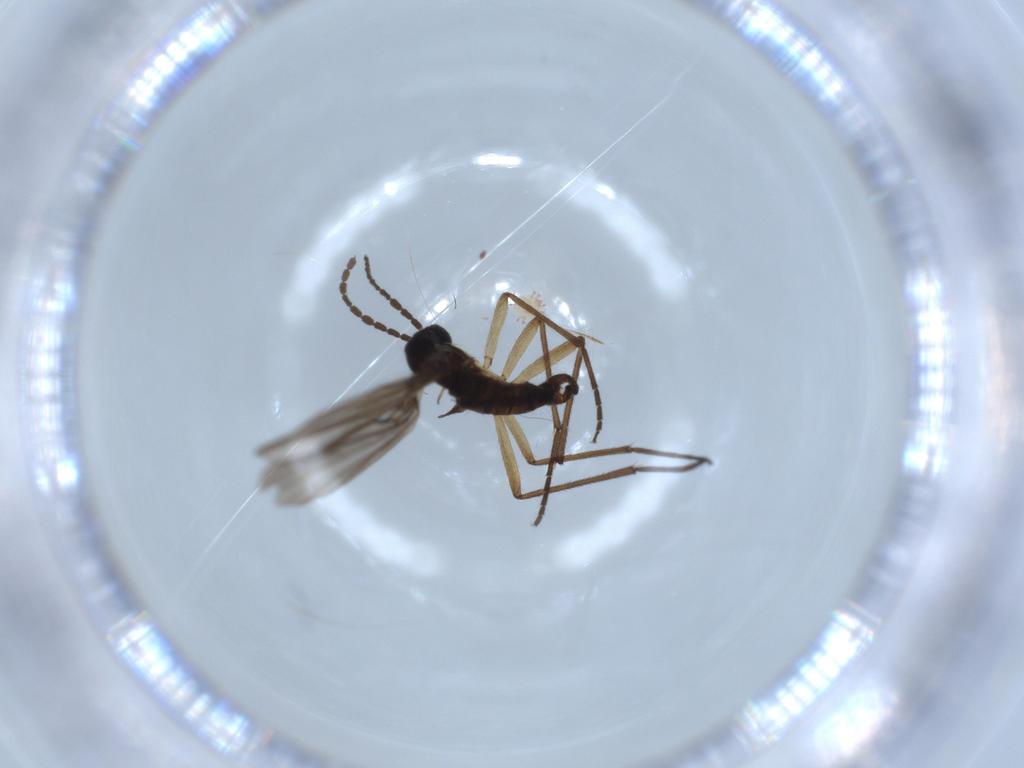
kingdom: Animalia
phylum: Arthropoda
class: Insecta
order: Diptera
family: Sciaridae
